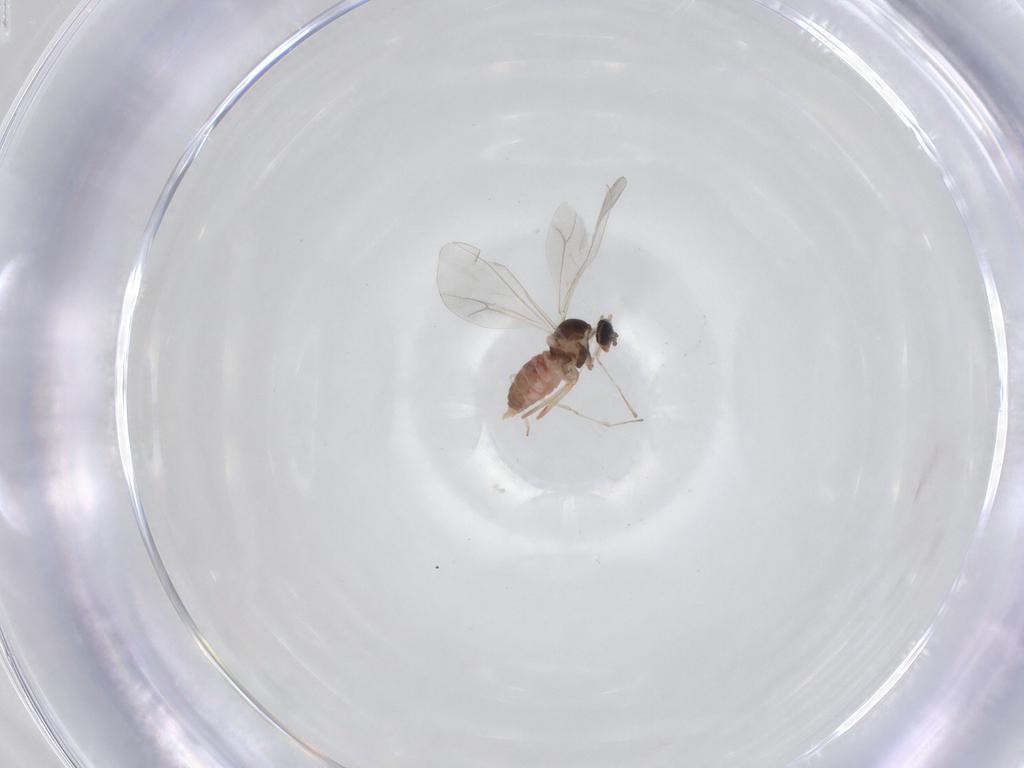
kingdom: Animalia
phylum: Arthropoda
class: Insecta
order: Diptera
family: Cecidomyiidae
